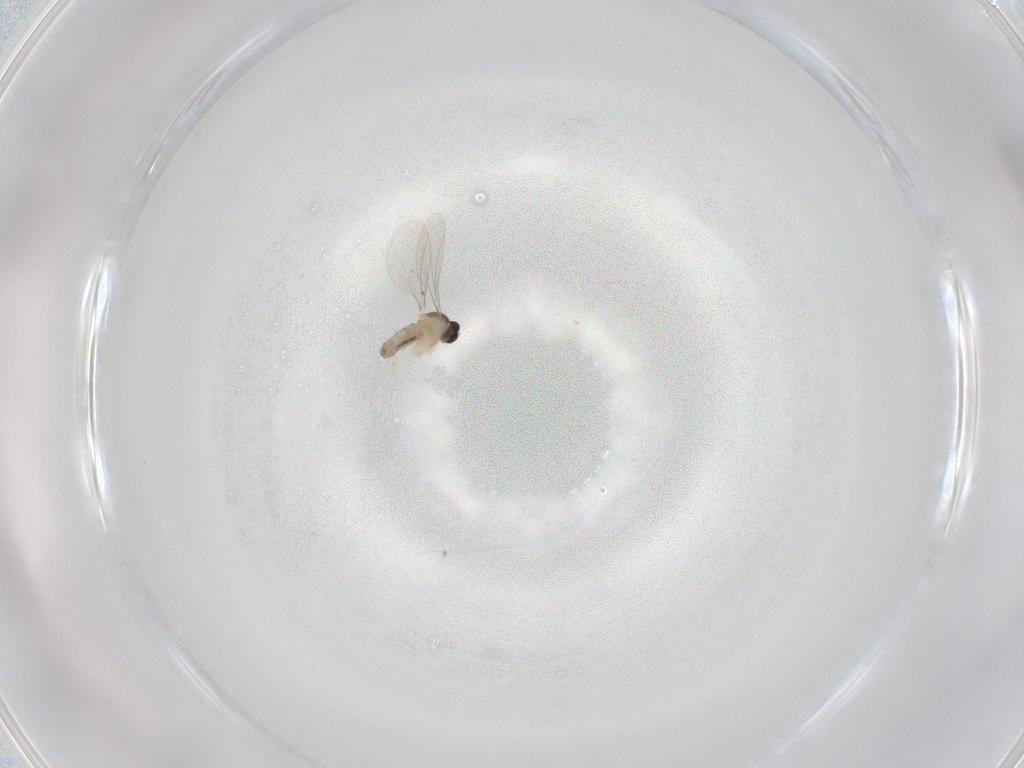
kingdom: Animalia
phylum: Arthropoda
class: Insecta
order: Diptera
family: Cecidomyiidae
